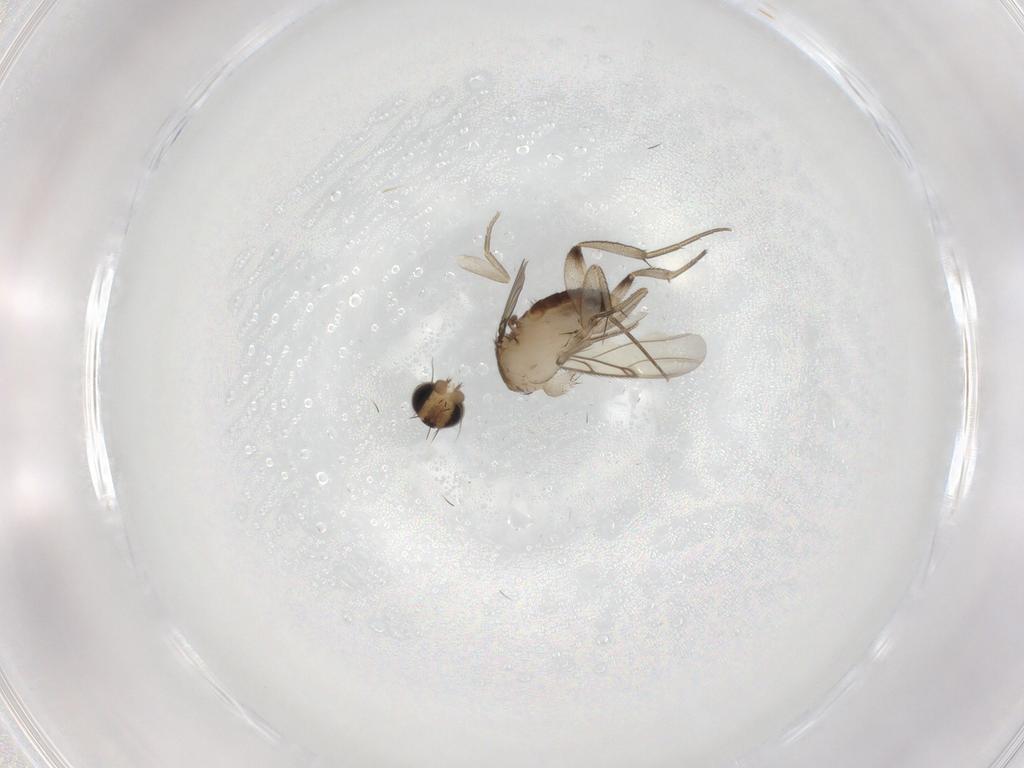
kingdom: Animalia
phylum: Arthropoda
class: Insecta
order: Diptera
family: Phoridae
